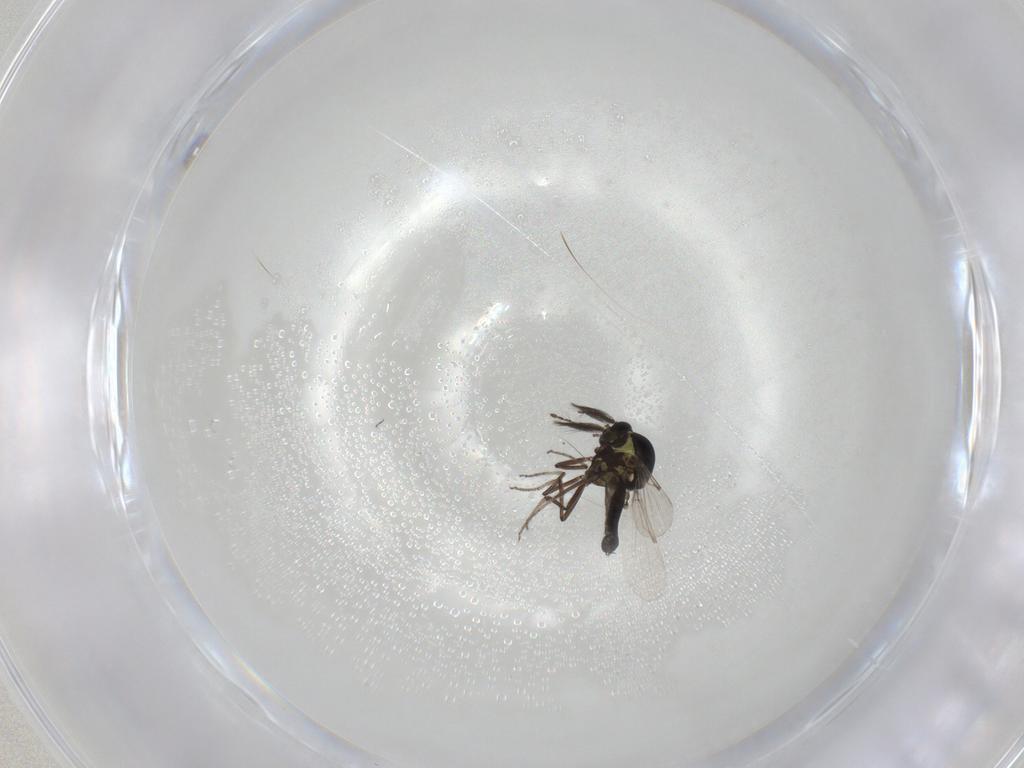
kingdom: Animalia
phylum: Arthropoda
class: Insecta
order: Diptera
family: Ceratopogonidae
